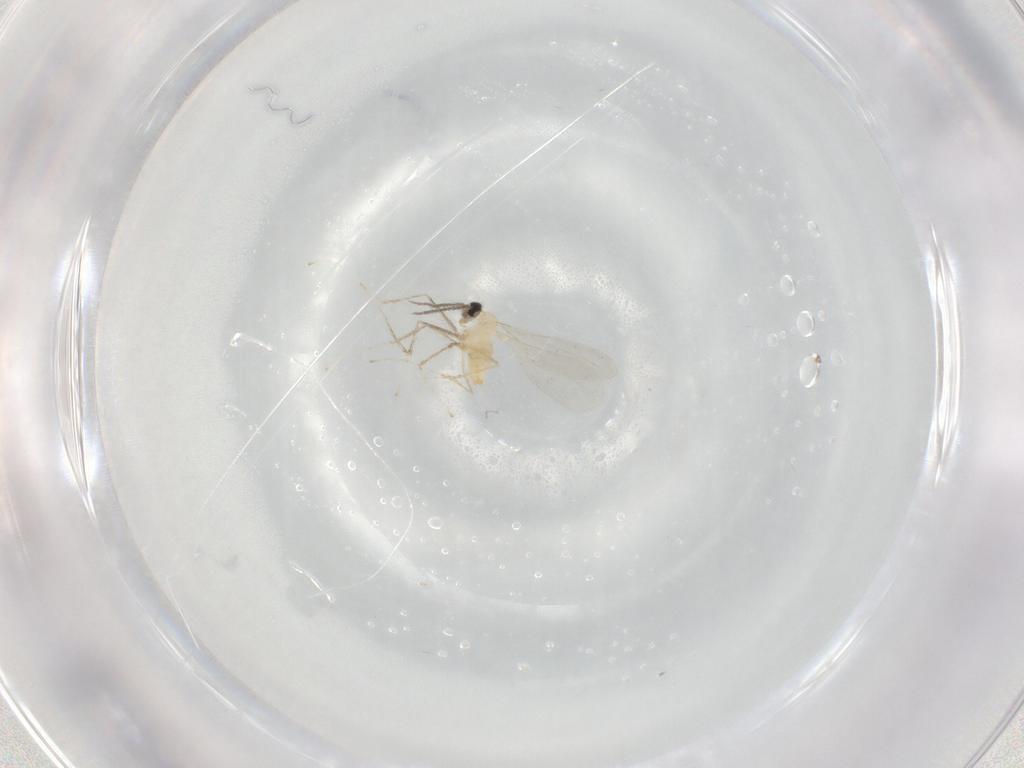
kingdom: Animalia
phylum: Arthropoda
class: Insecta
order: Diptera
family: Cecidomyiidae
